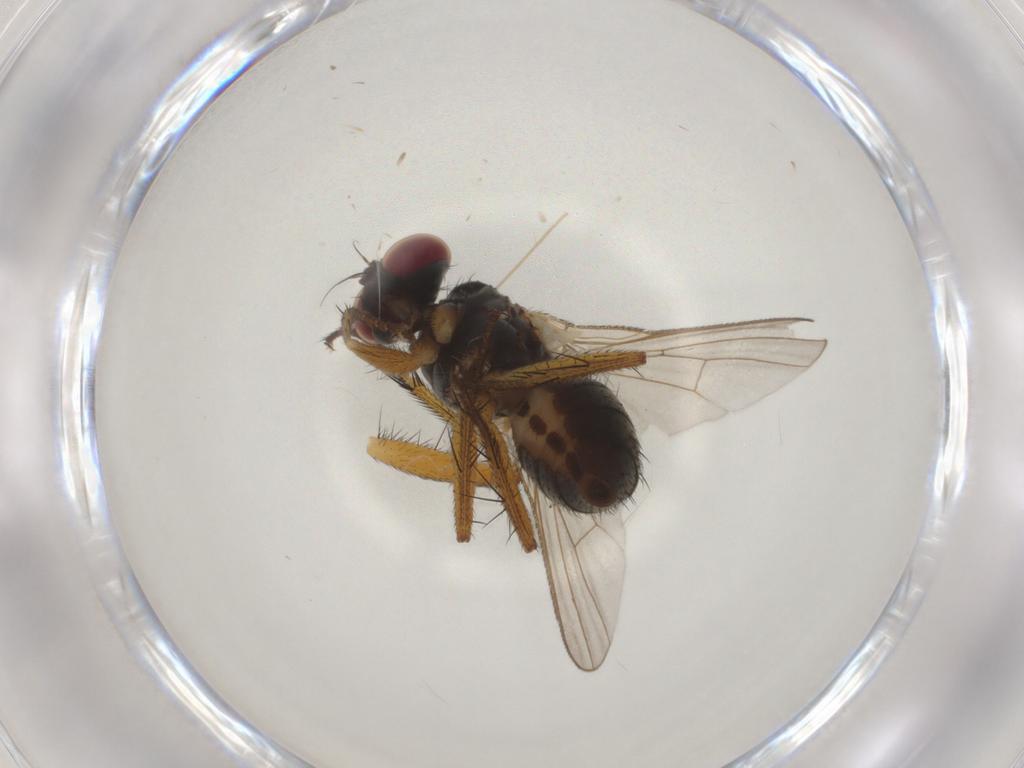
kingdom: Animalia
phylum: Arthropoda
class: Insecta
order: Diptera
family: Muscidae
